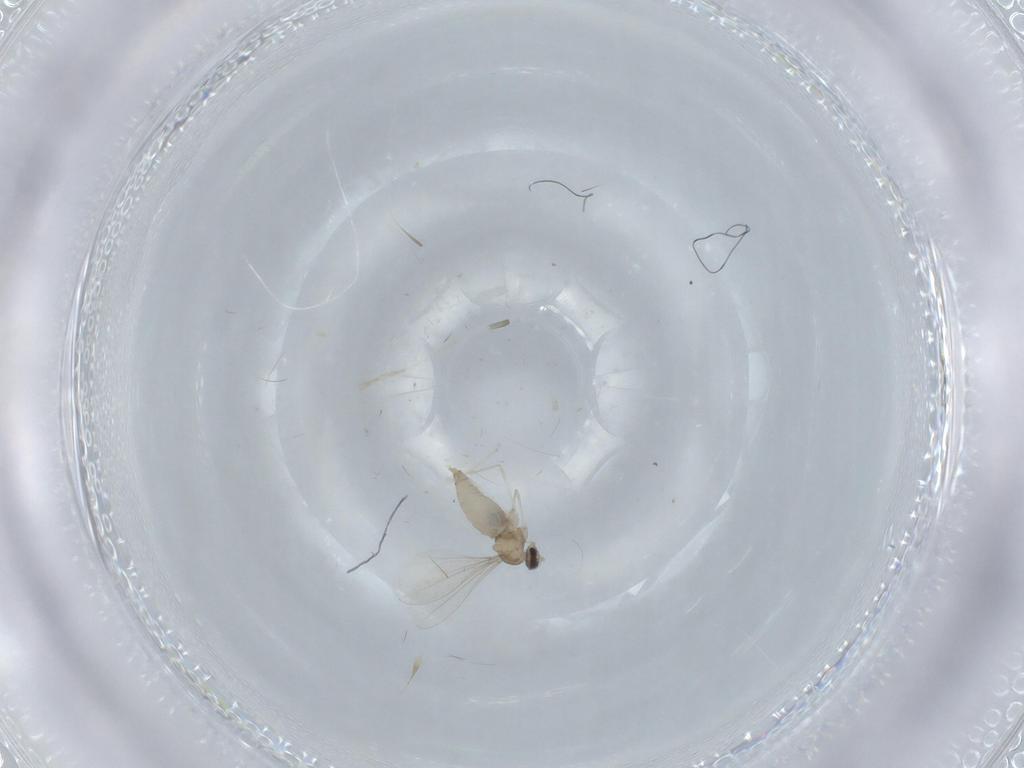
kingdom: Animalia
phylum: Arthropoda
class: Insecta
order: Diptera
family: Cecidomyiidae
